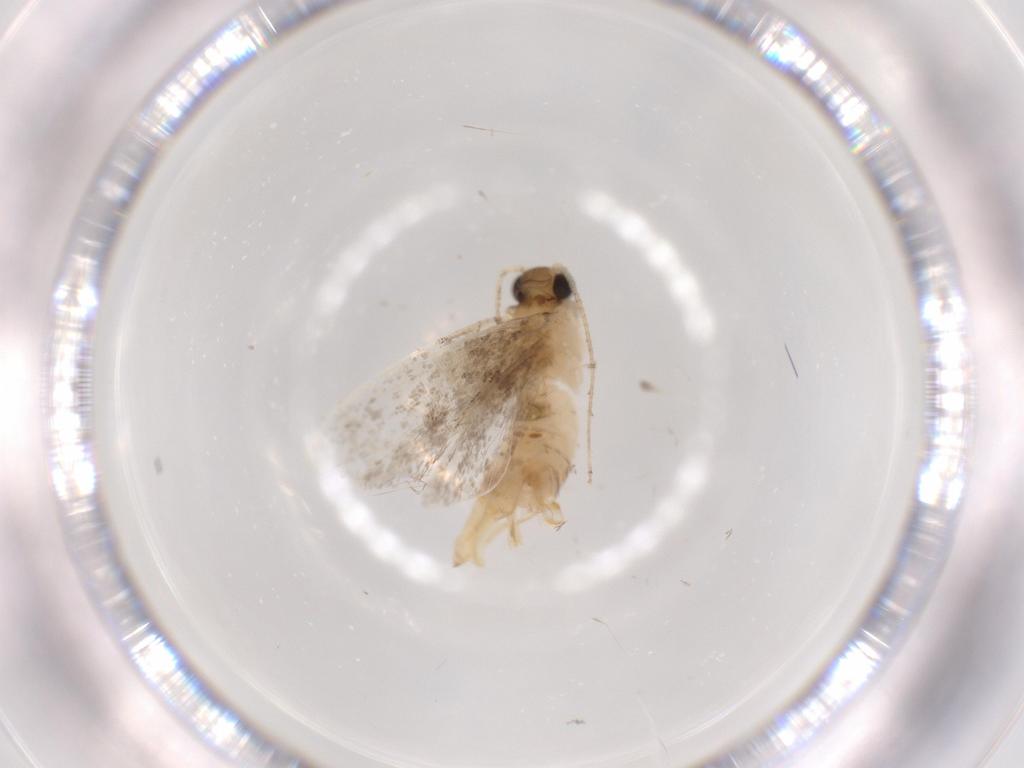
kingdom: Animalia
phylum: Arthropoda
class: Insecta
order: Lepidoptera
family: Tineidae
